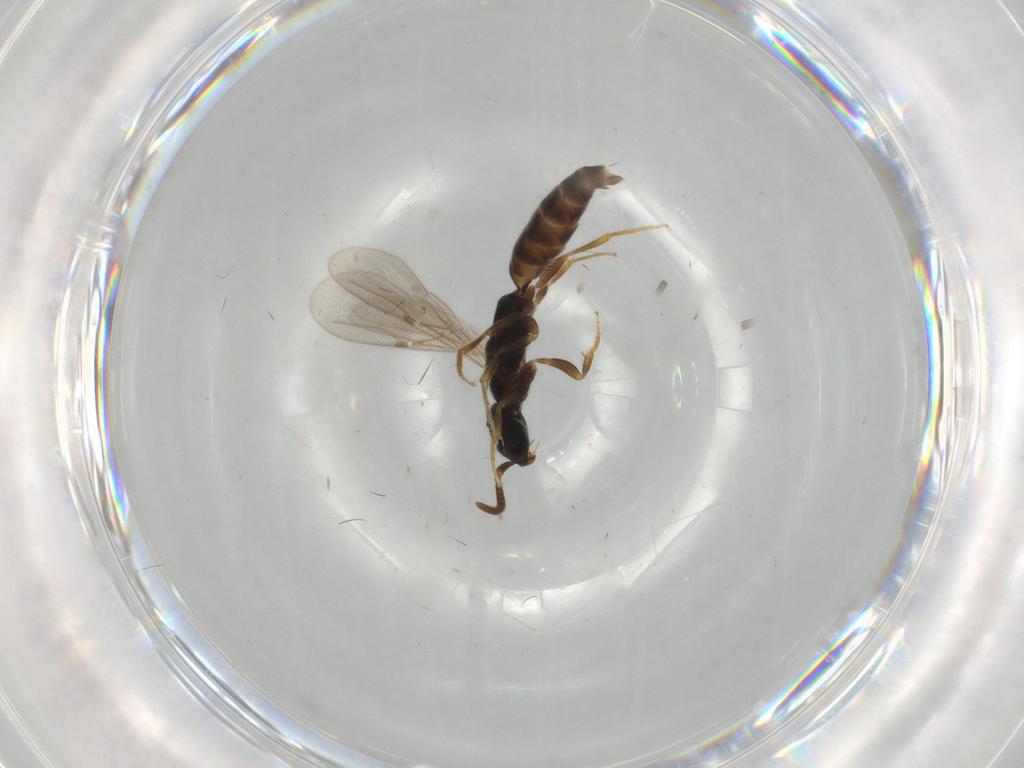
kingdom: Animalia
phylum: Arthropoda
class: Insecta
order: Hymenoptera
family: Bethylidae
